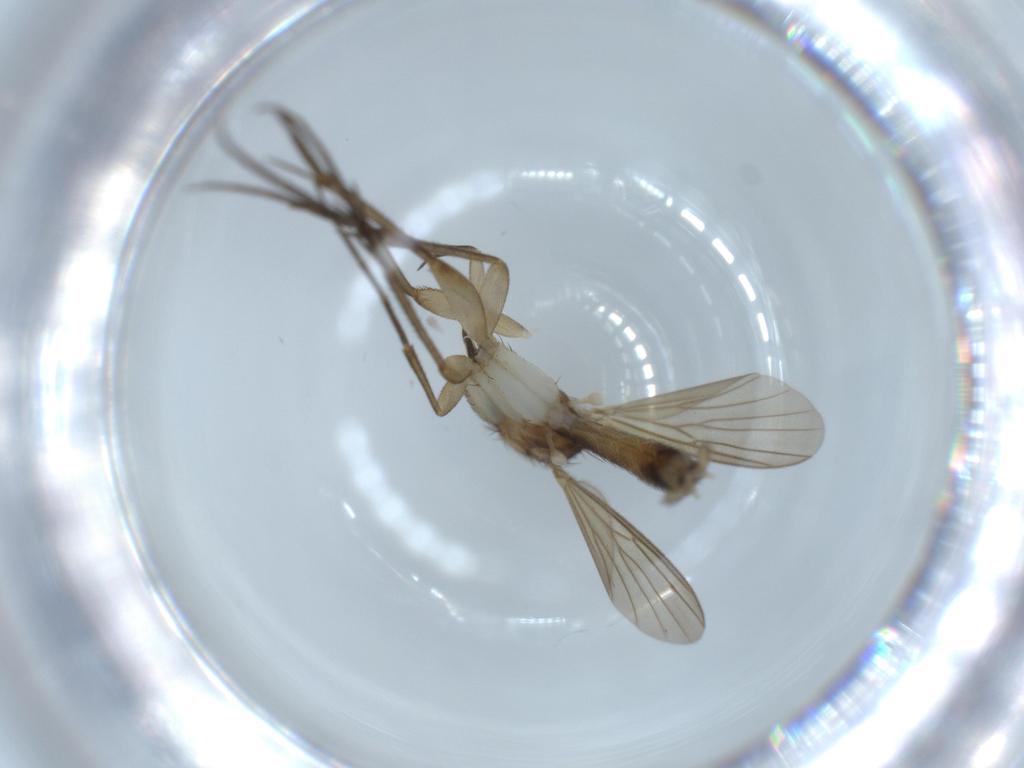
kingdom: Animalia
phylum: Arthropoda
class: Insecta
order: Diptera
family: Mycetophilidae
